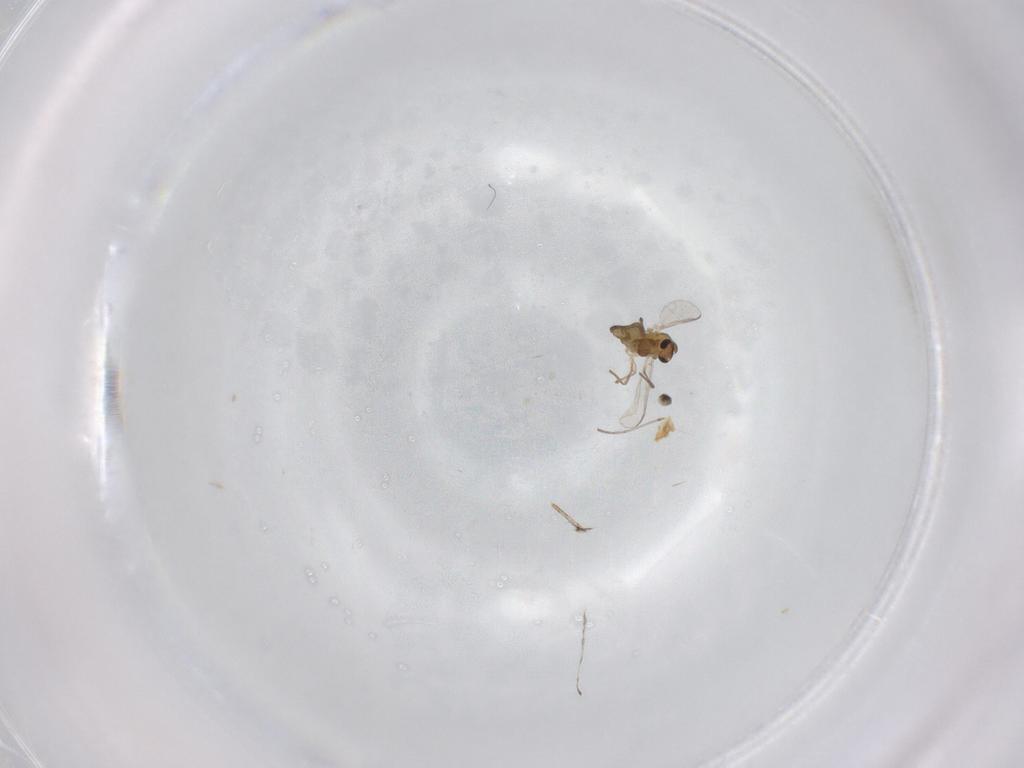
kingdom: Animalia
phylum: Arthropoda
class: Insecta
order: Diptera
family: Cecidomyiidae
